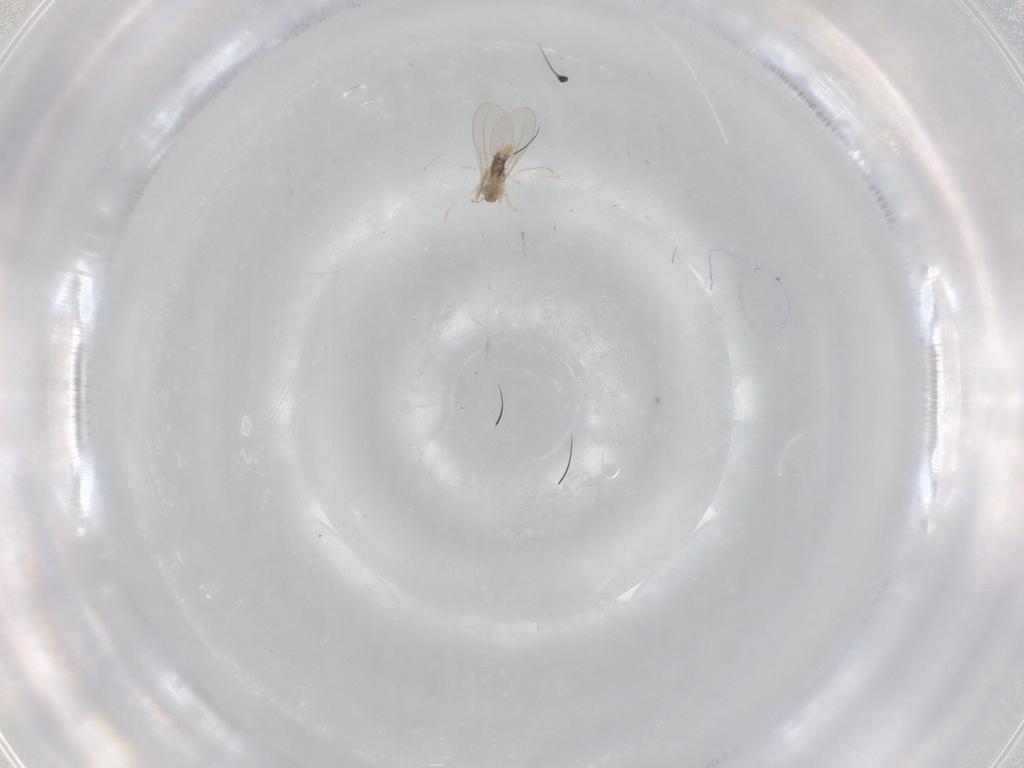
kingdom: Animalia
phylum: Arthropoda
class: Insecta
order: Diptera
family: Cecidomyiidae
